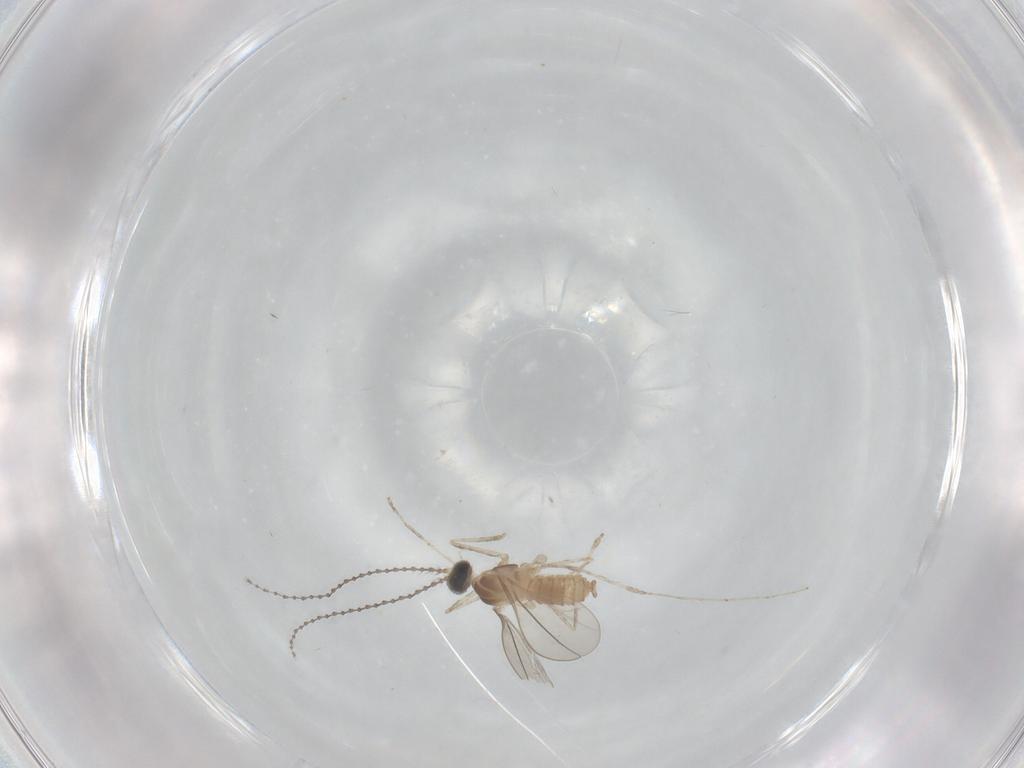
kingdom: Animalia
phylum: Arthropoda
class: Insecta
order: Diptera
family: Cecidomyiidae
